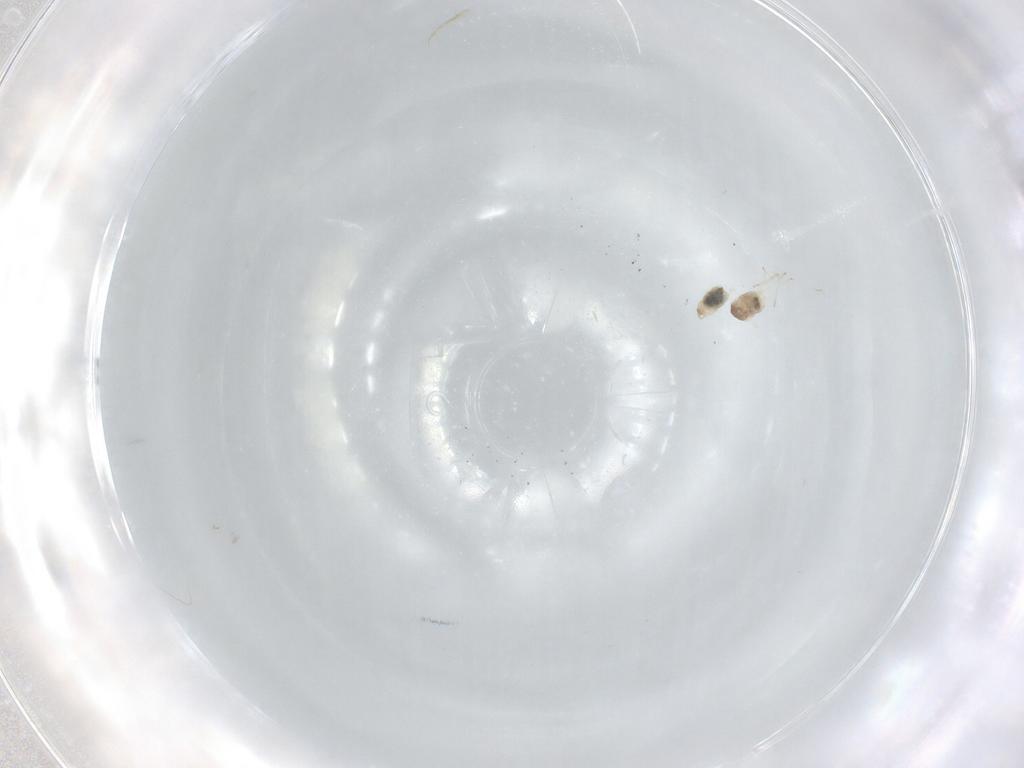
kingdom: Animalia
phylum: Arthropoda
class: Insecta
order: Diptera
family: Cecidomyiidae
